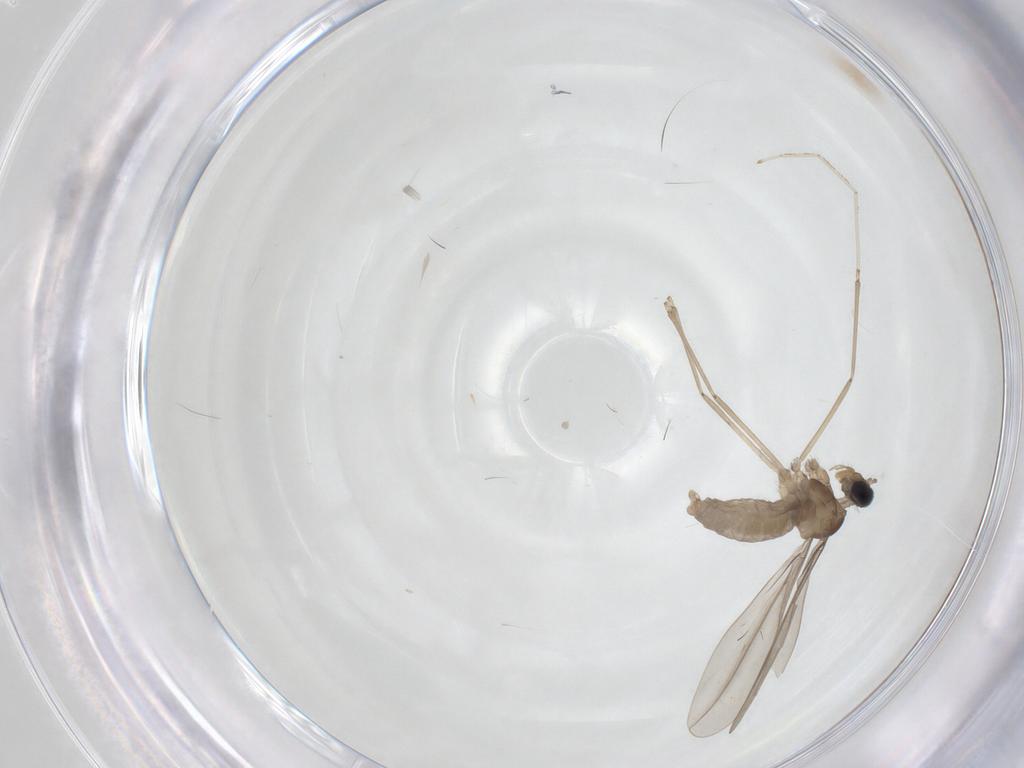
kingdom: Animalia
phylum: Arthropoda
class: Insecta
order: Diptera
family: Cecidomyiidae
